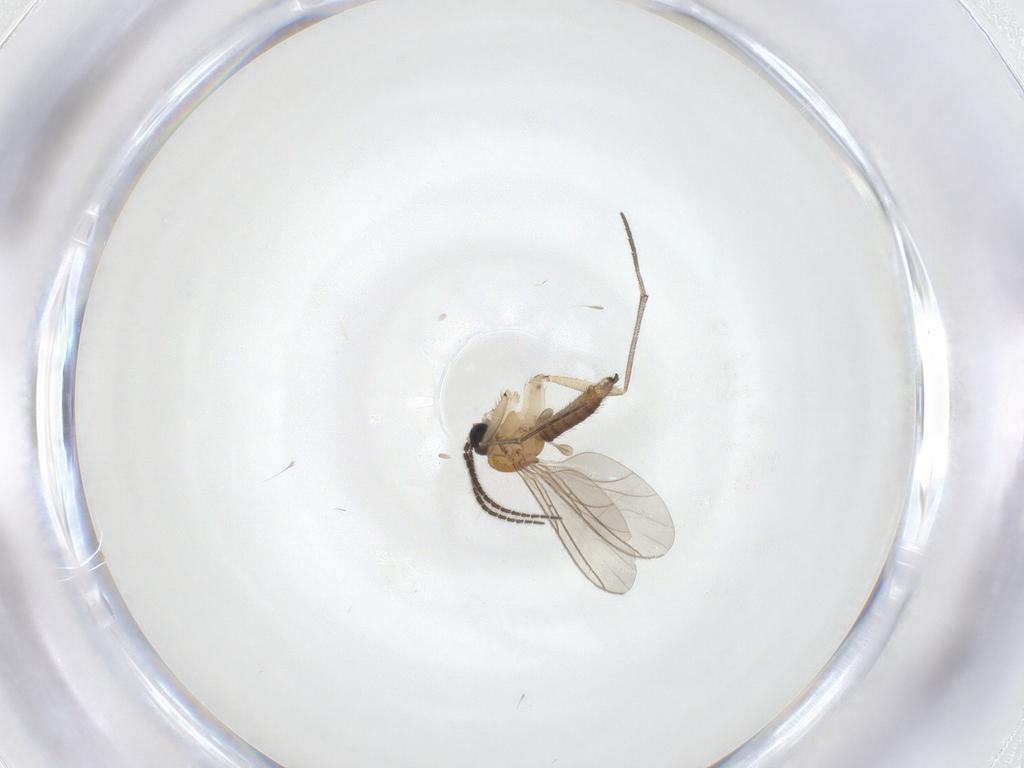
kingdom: Animalia
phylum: Arthropoda
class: Insecta
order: Diptera
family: Sciaridae
